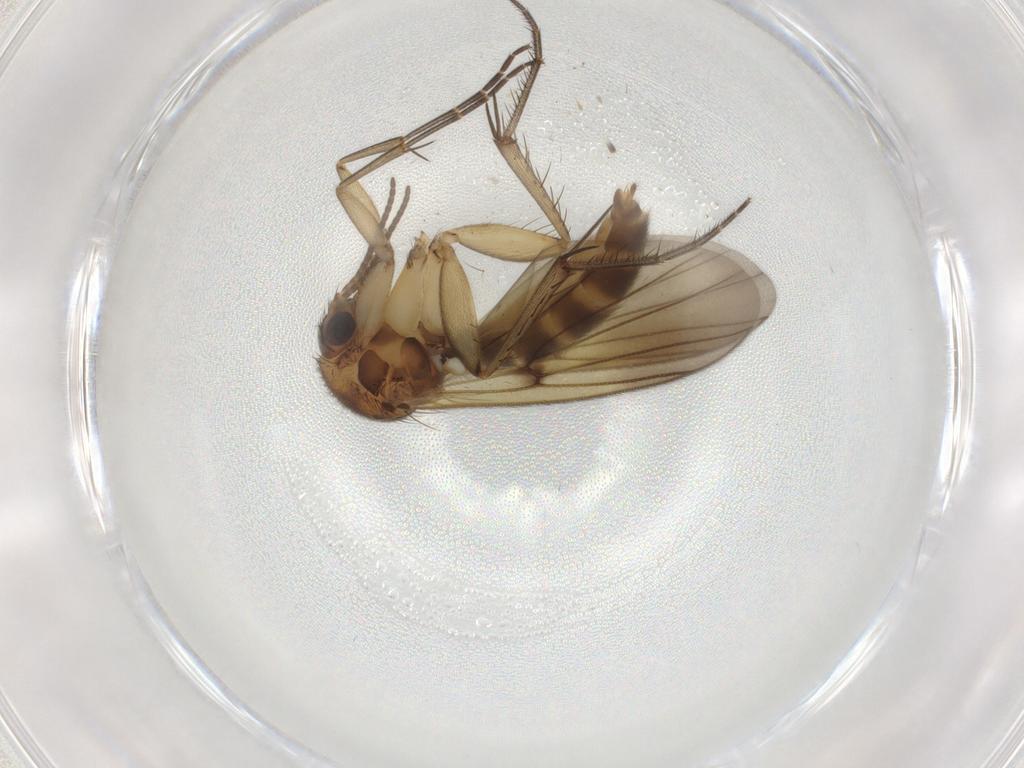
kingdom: Animalia
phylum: Arthropoda
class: Insecta
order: Diptera
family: Mycetophilidae
